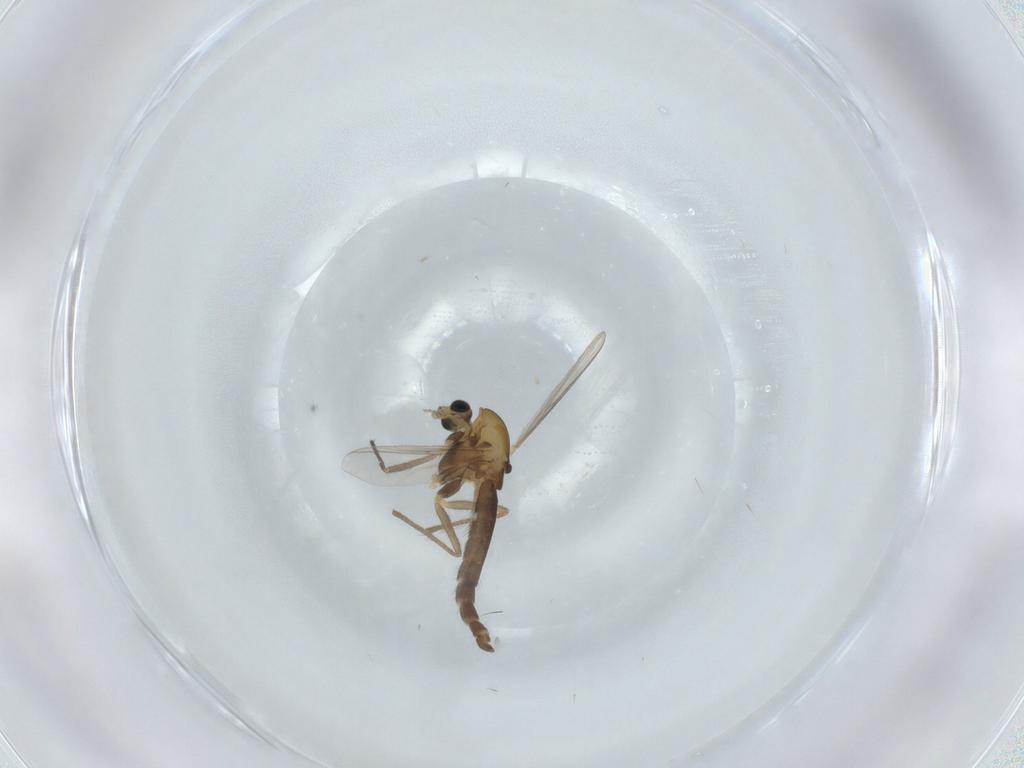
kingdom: Animalia
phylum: Arthropoda
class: Insecta
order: Diptera
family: Chironomidae
